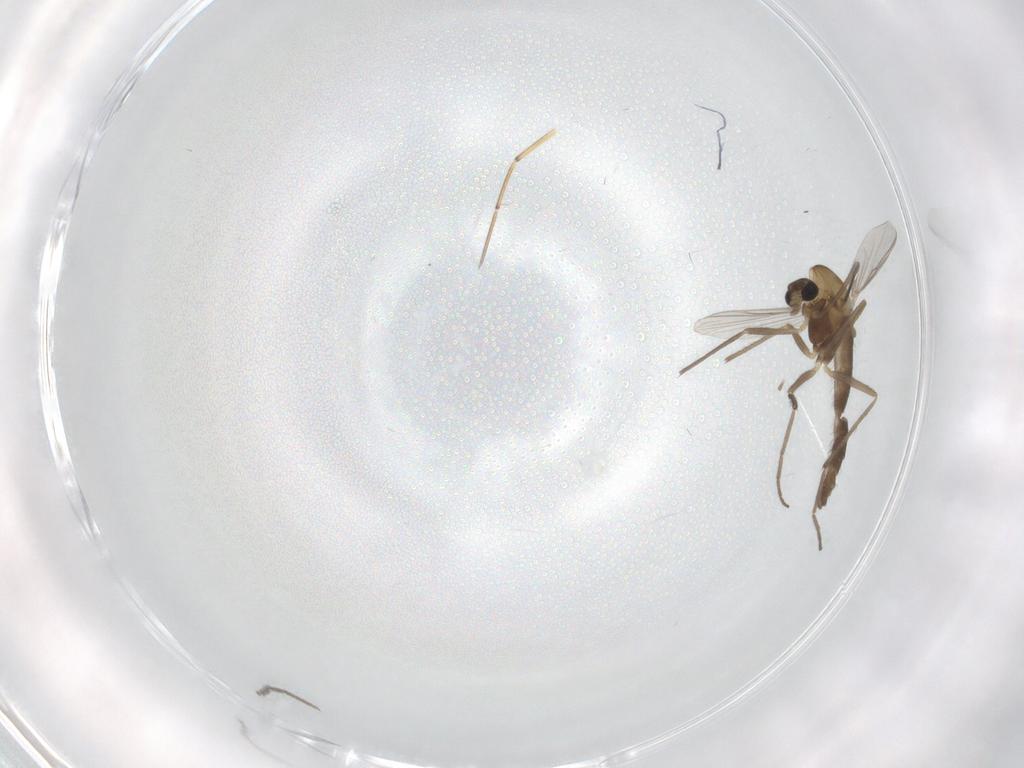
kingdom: Animalia
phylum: Arthropoda
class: Insecta
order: Diptera
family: Chironomidae
